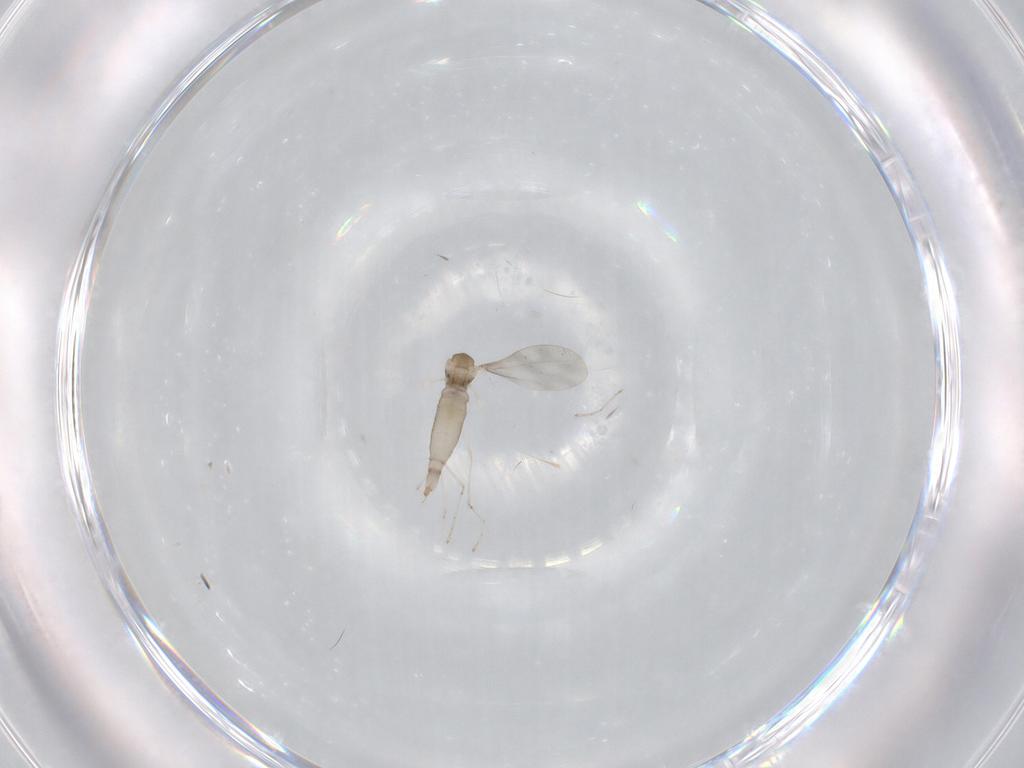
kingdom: Animalia
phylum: Arthropoda
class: Insecta
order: Diptera
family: Cecidomyiidae
